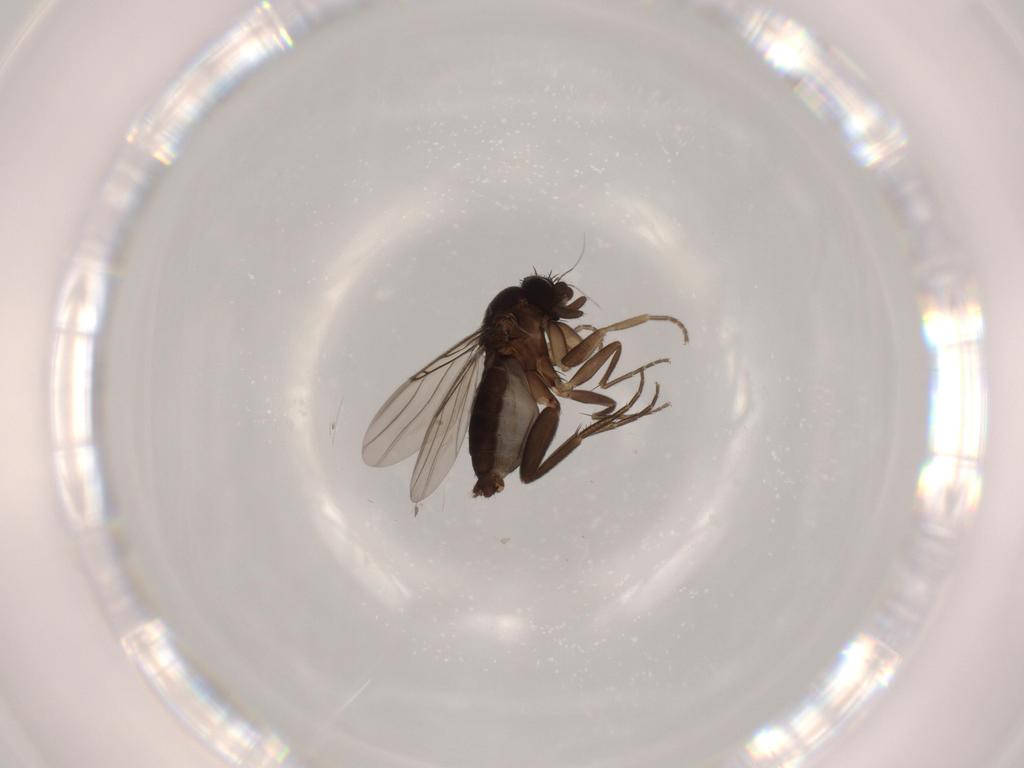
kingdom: Animalia
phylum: Arthropoda
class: Insecta
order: Diptera
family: Phoridae
